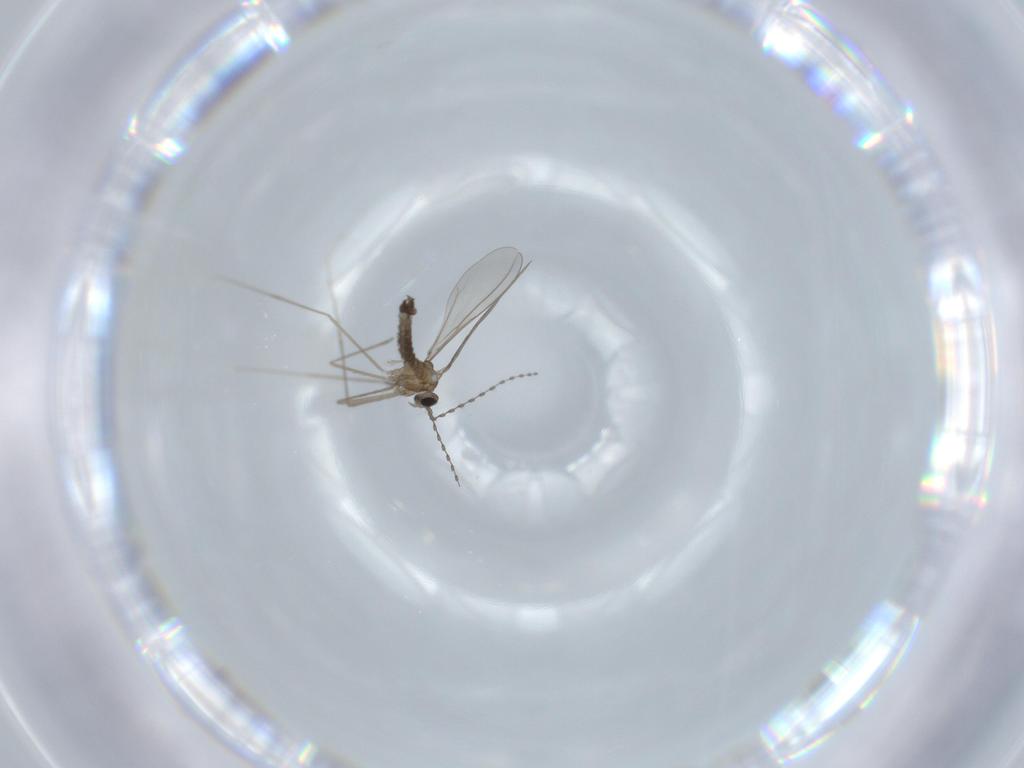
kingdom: Animalia
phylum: Arthropoda
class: Insecta
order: Diptera
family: Cecidomyiidae
